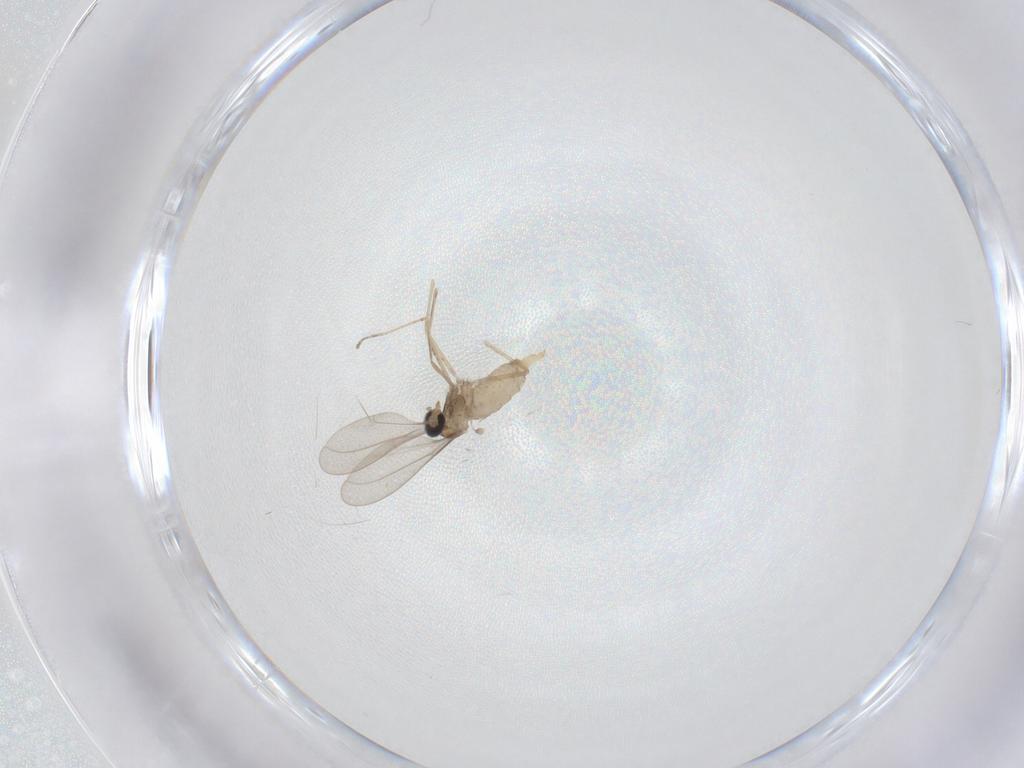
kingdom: Animalia
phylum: Arthropoda
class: Insecta
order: Diptera
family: Cecidomyiidae
